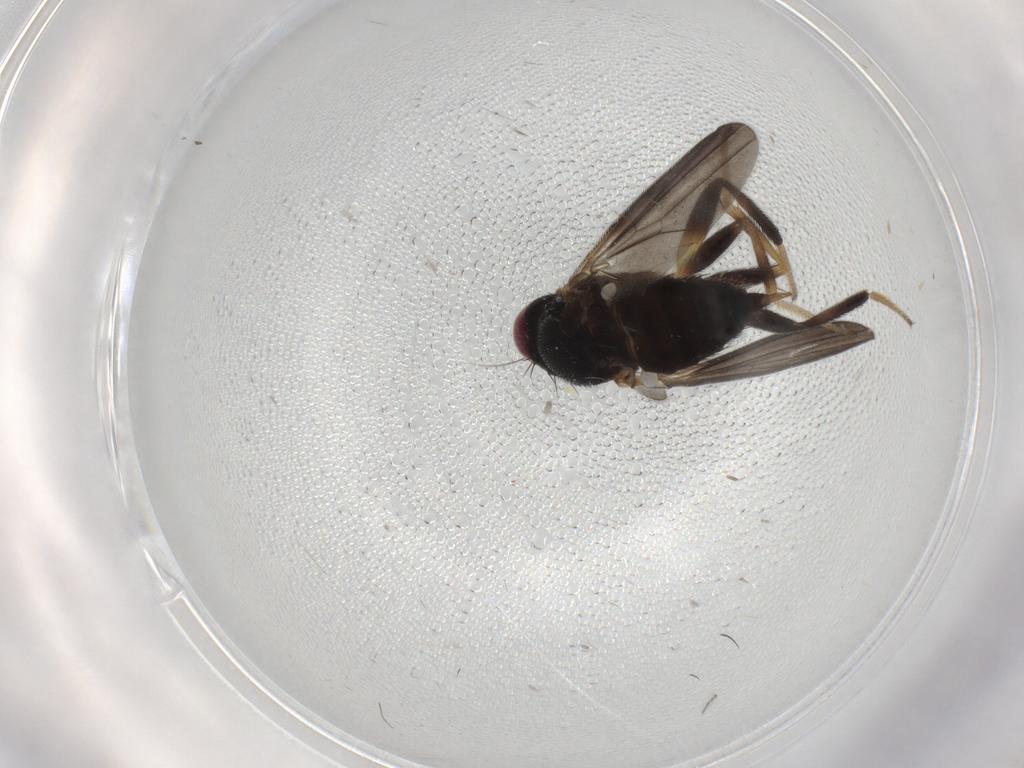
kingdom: Animalia
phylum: Arthropoda
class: Insecta
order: Diptera
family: Clusiidae
